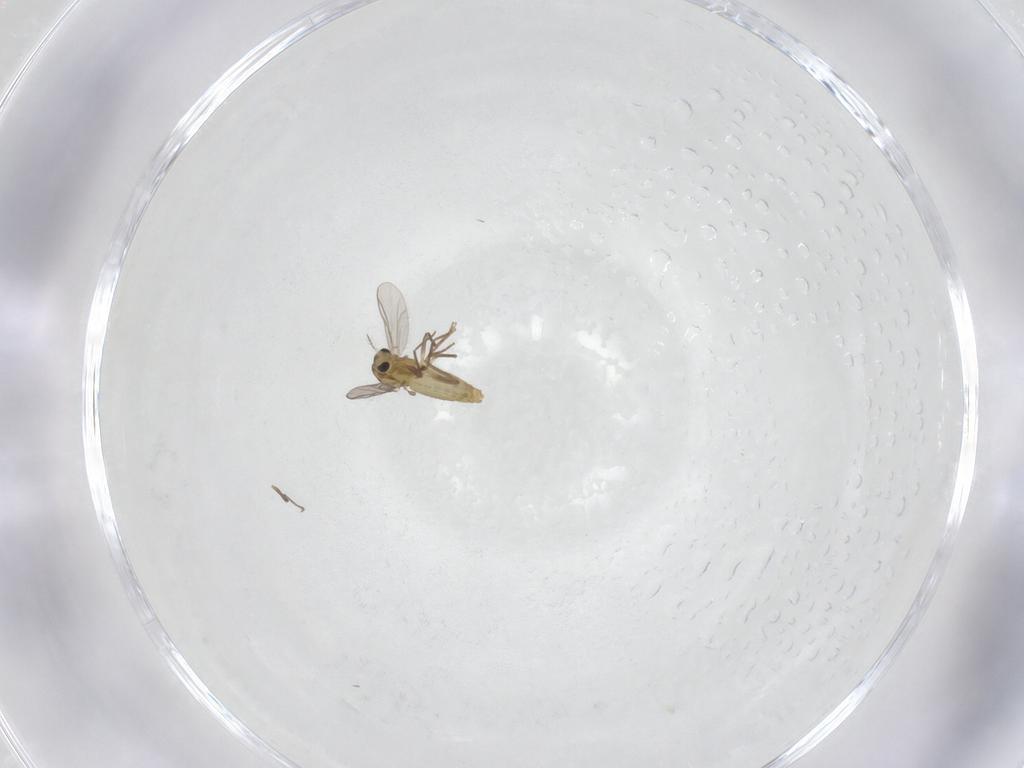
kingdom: Animalia
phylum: Arthropoda
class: Insecta
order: Diptera
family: Chironomidae
